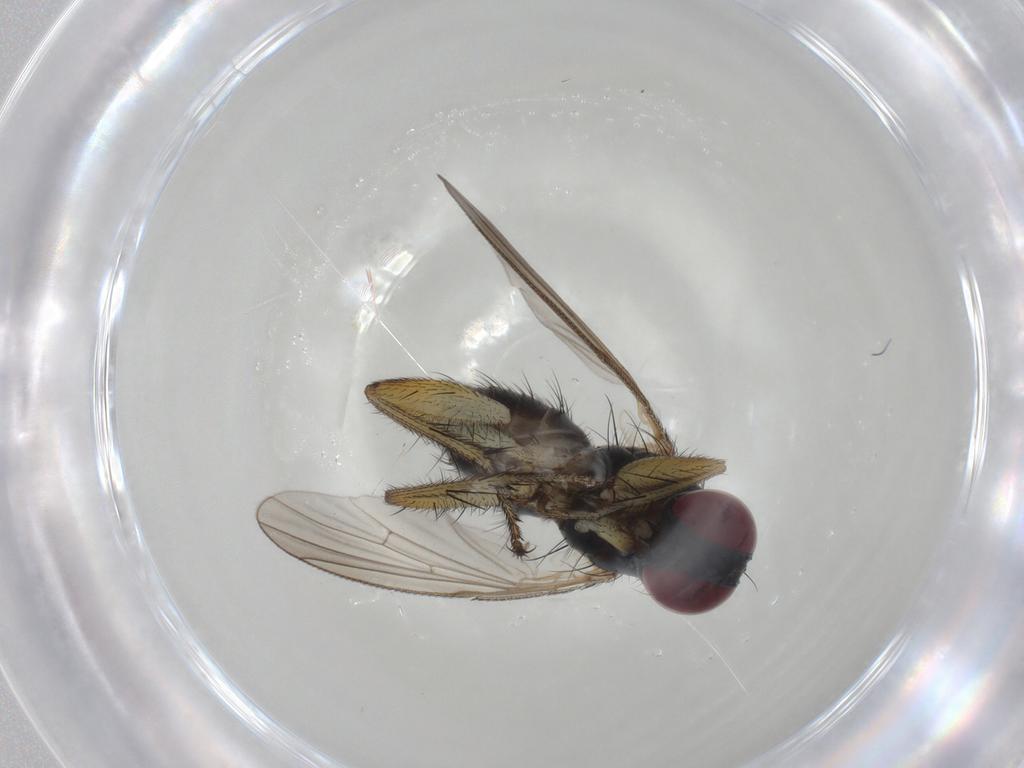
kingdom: Animalia
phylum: Arthropoda
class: Insecta
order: Diptera
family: Muscidae
